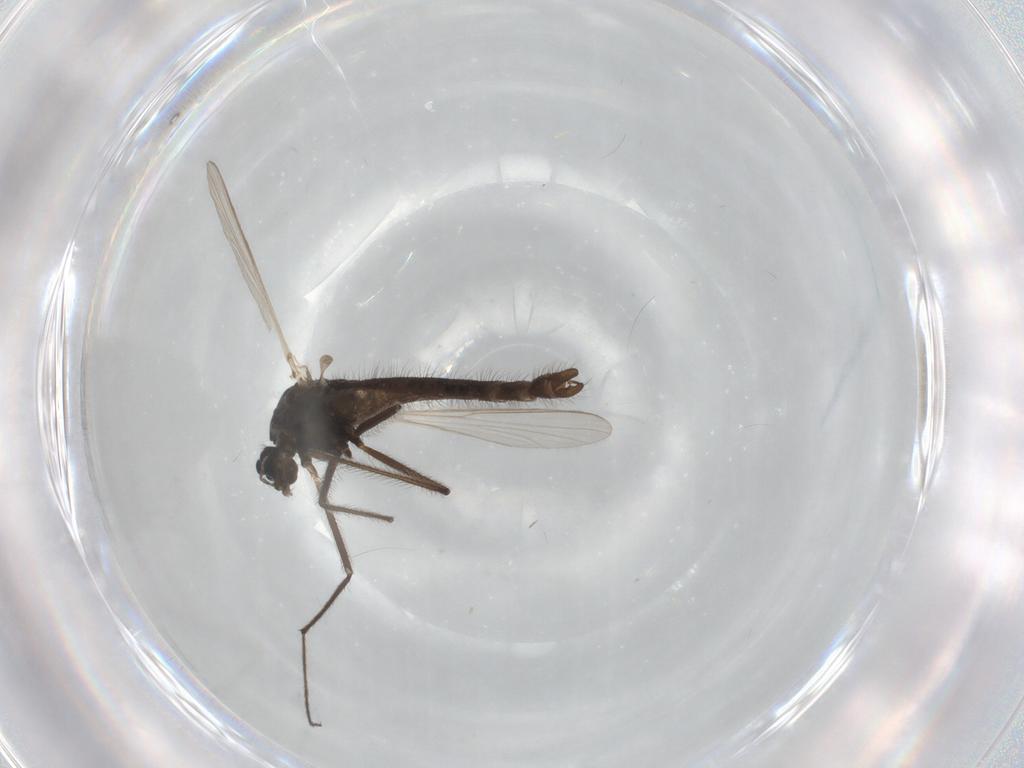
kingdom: Animalia
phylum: Arthropoda
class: Insecta
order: Diptera
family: Chironomidae
